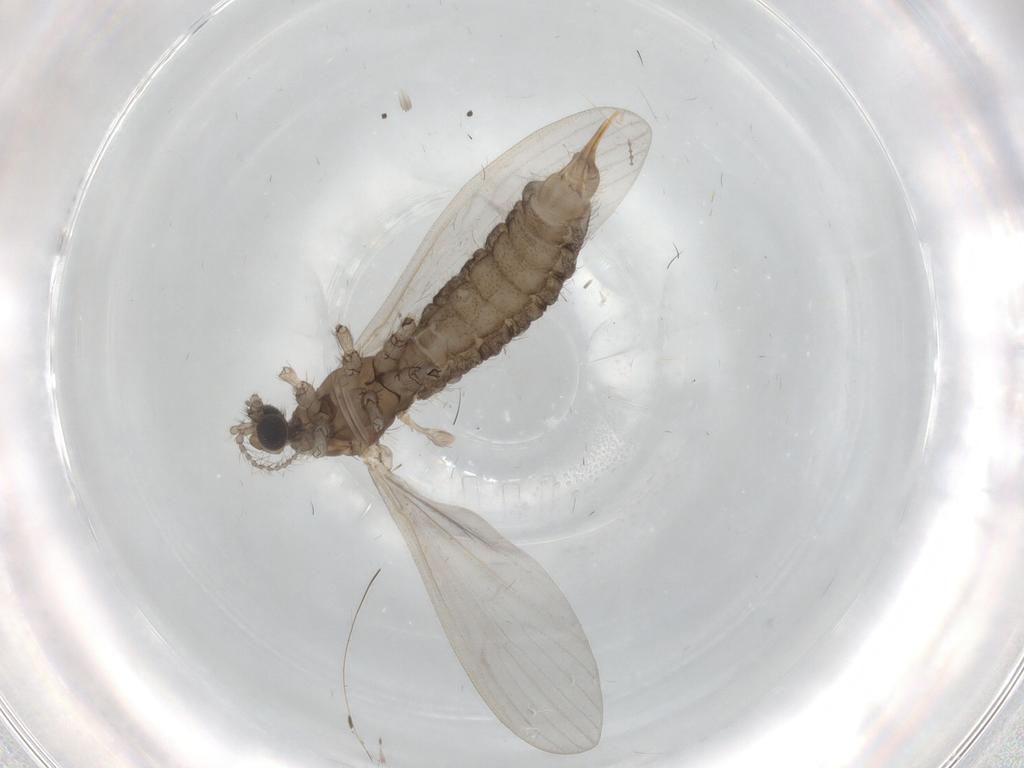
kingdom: Animalia
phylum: Arthropoda
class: Insecta
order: Diptera
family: Limoniidae
